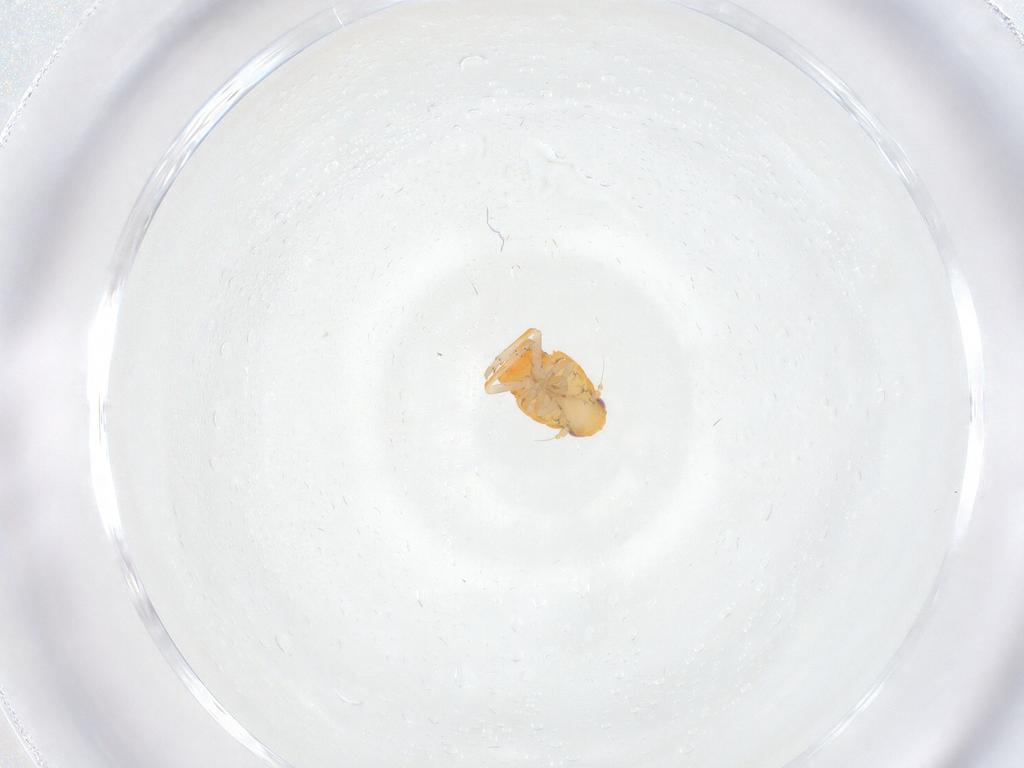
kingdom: Animalia
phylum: Arthropoda
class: Insecta
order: Hemiptera
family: Ricaniidae
